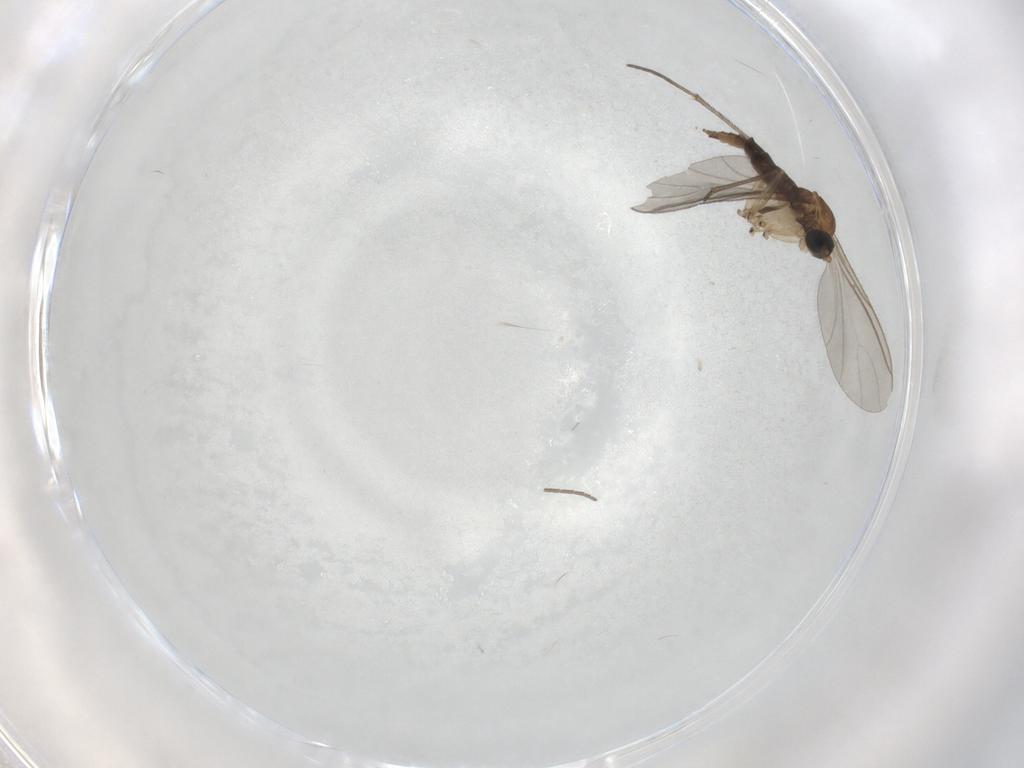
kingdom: Animalia
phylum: Arthropoda
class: Insecta
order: Diptera
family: Sciaridae
